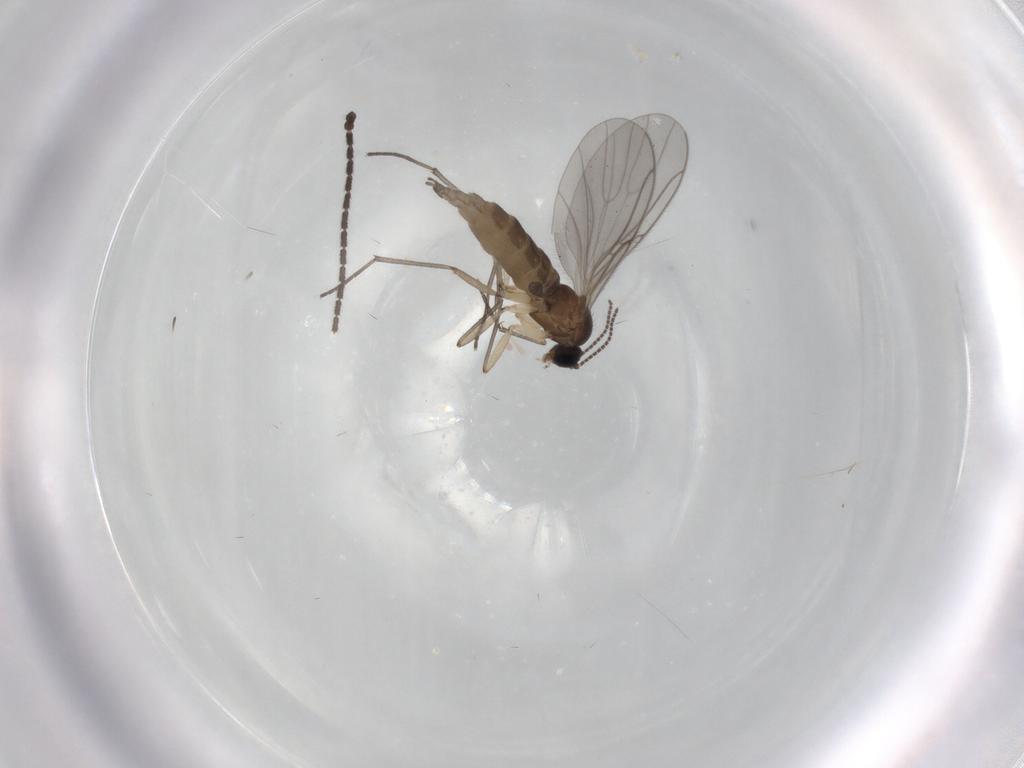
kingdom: Animalia
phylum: Arthropoda
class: Insecta
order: Diptera
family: Sciaridae
